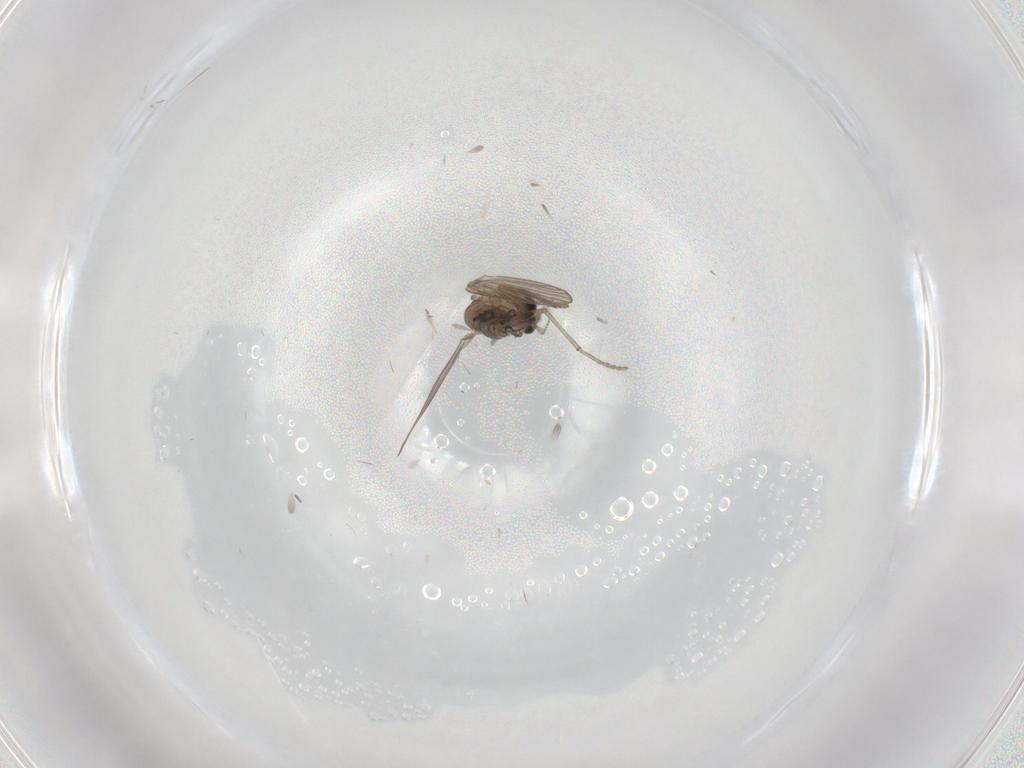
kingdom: Animalia
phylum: Arthropoda
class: Insecta
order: Diptera
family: Psychodidae
